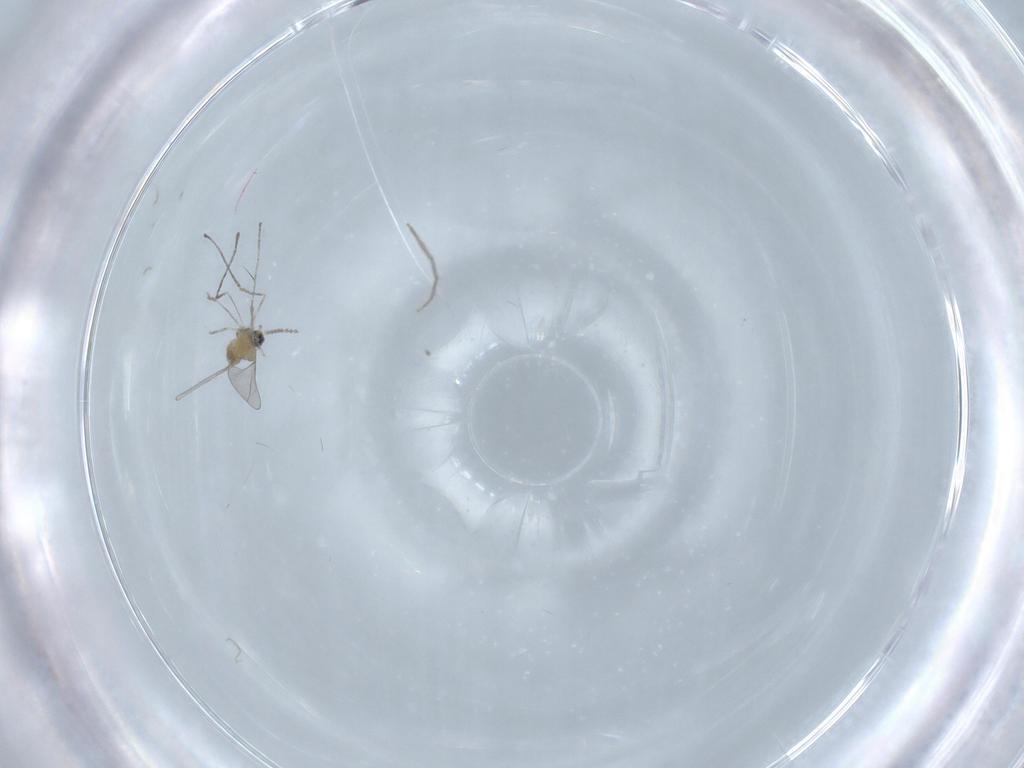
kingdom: Animalia
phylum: Arthropoda
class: Insecta
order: Diptera
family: Cecidomyiidae
